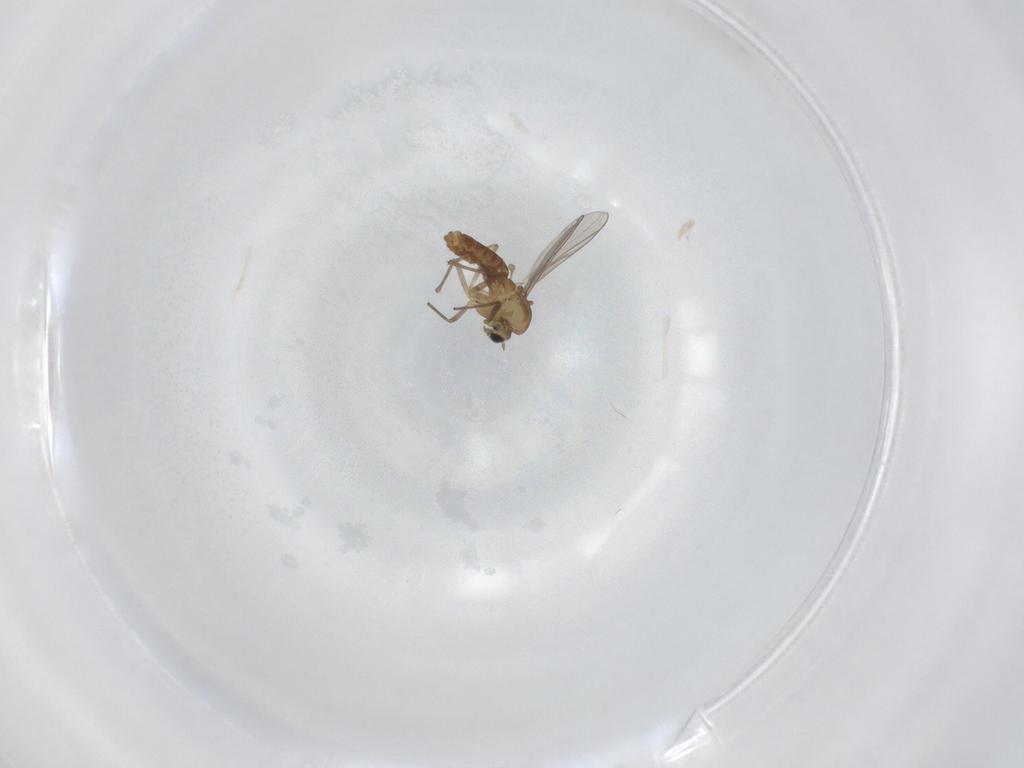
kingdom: Animalia
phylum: Arthropoda
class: Insecta
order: Diptera
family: Chironomidae
